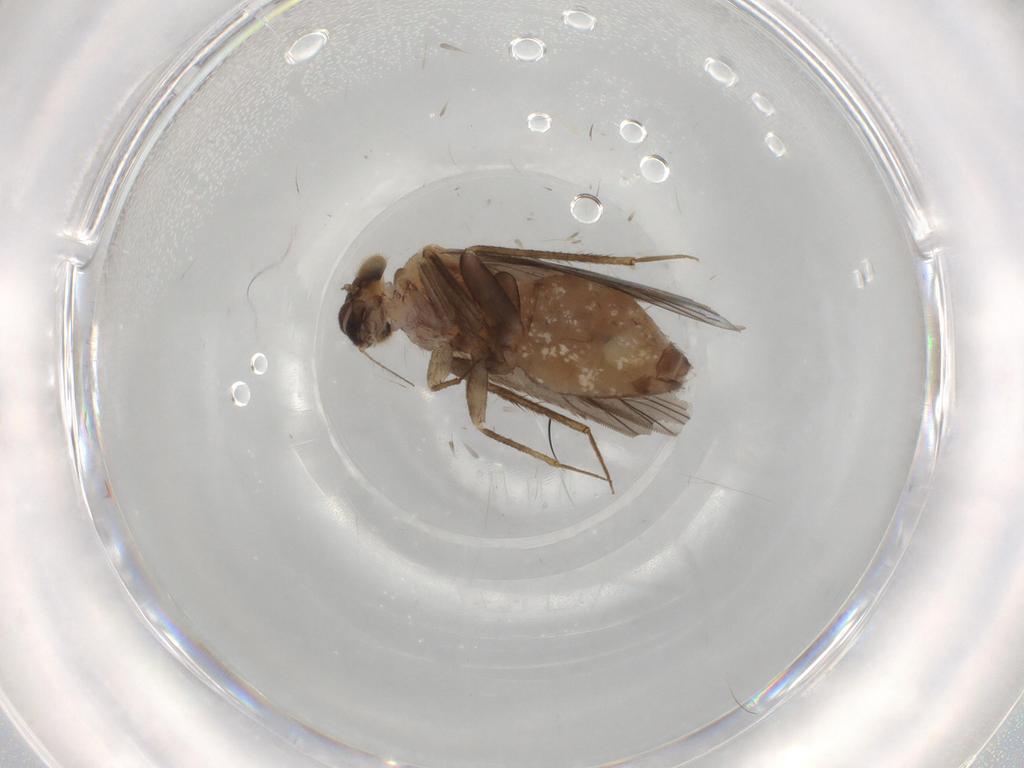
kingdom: Animalia
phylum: Arthropoda
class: Insecta
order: Psocodea
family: Lepidopsocidae
